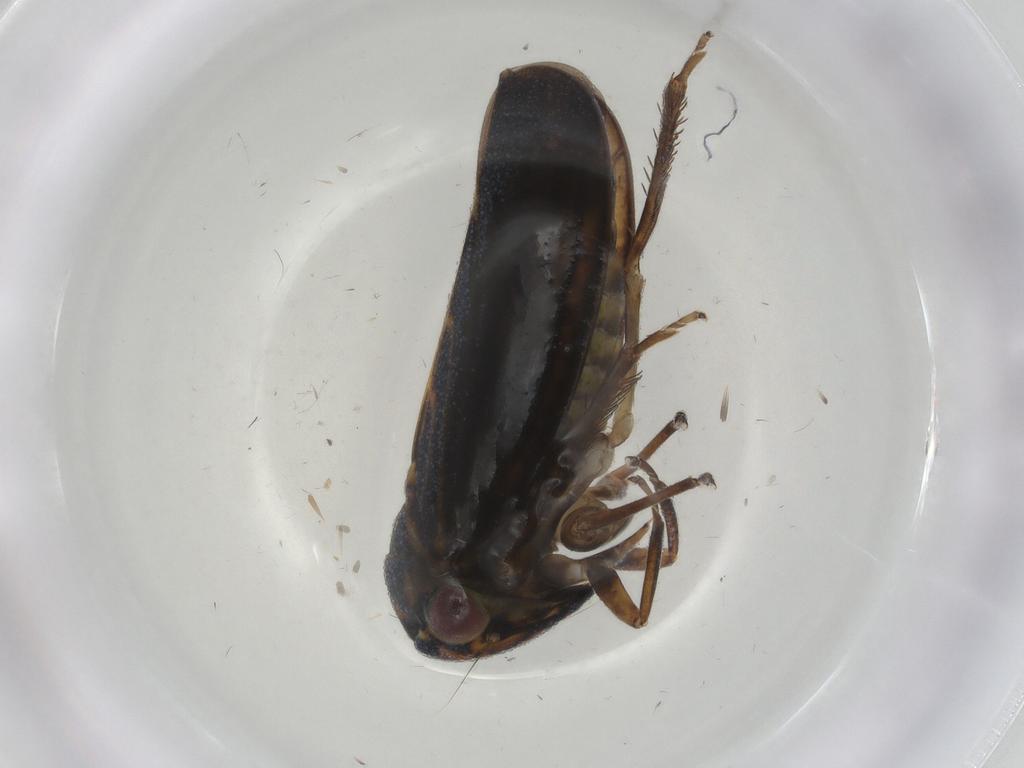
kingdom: Animalia
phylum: Arthropoda
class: Insecta
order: Hemiptera
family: Cicadellidae
